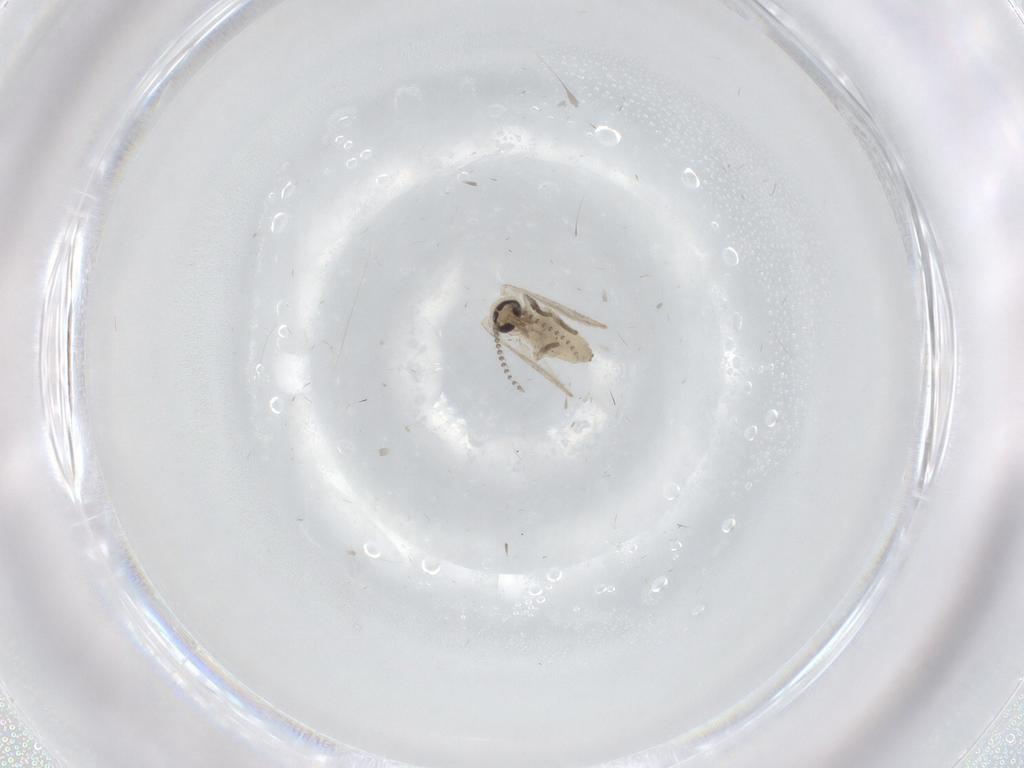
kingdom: Animalia
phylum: Arthropoda
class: Insecta
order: Diptera
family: Psychodidae
